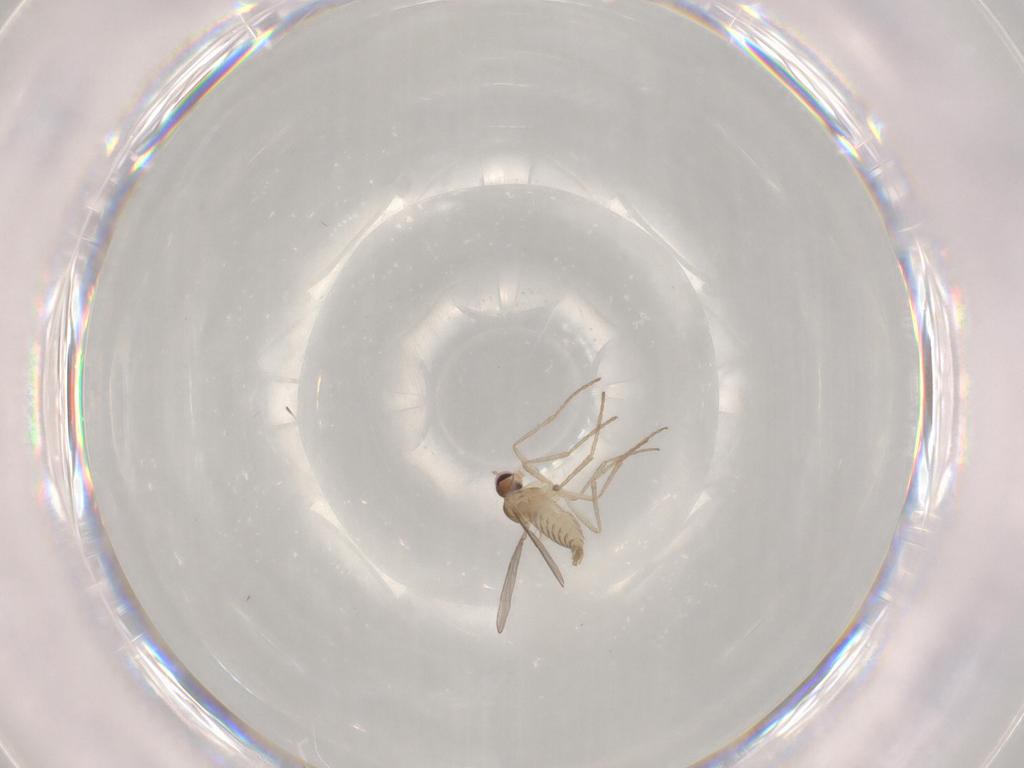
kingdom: Animalia
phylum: Arthropoda
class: Insecta
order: Diptera
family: Cecidomyiidae
